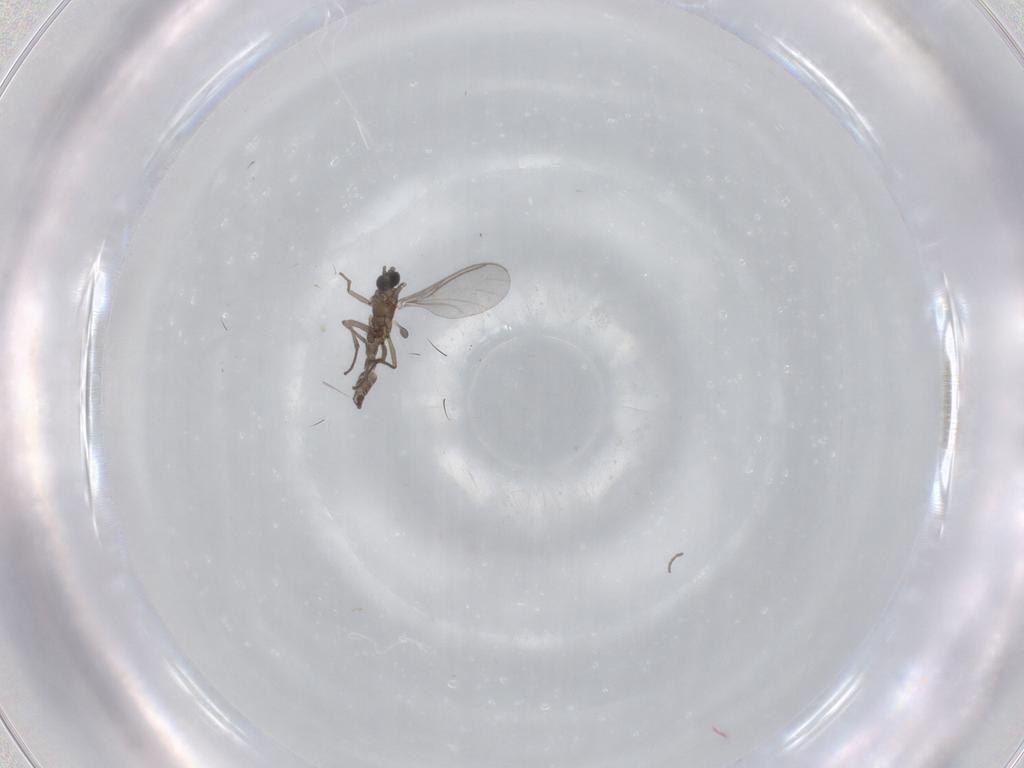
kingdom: Animalia
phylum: Arthropoda
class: Insecta
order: Diptera
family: Sciaridae
